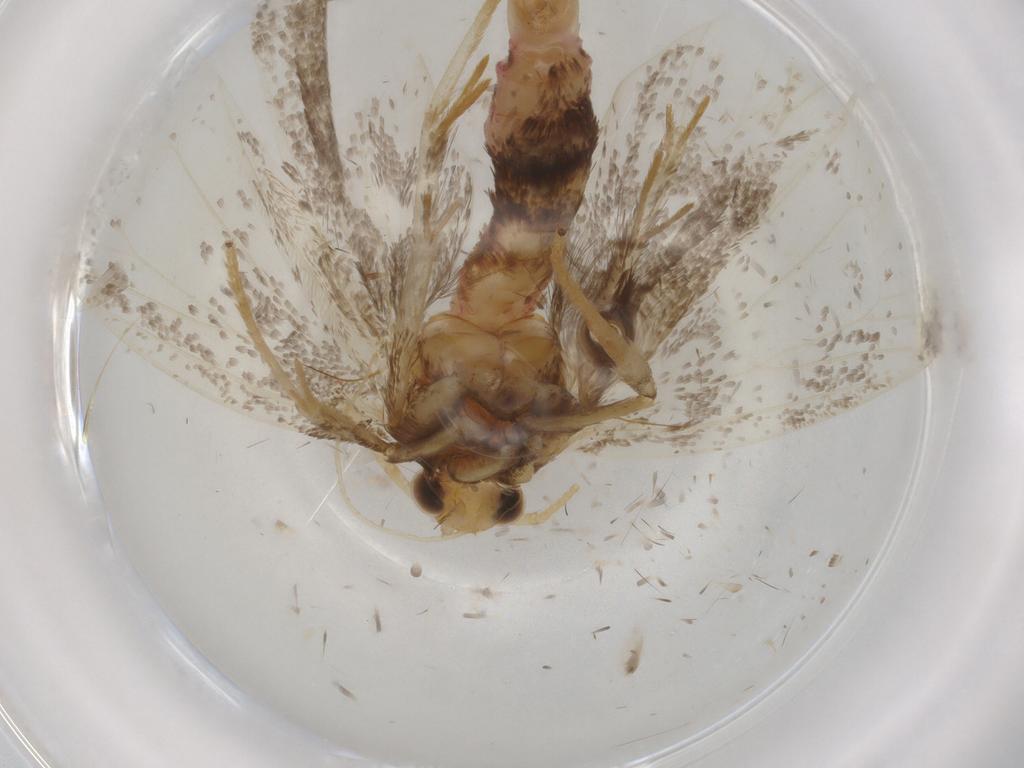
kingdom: Animalia
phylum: Arthropoda
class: Insecta
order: Lepidoptera
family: Lecithoceridae
